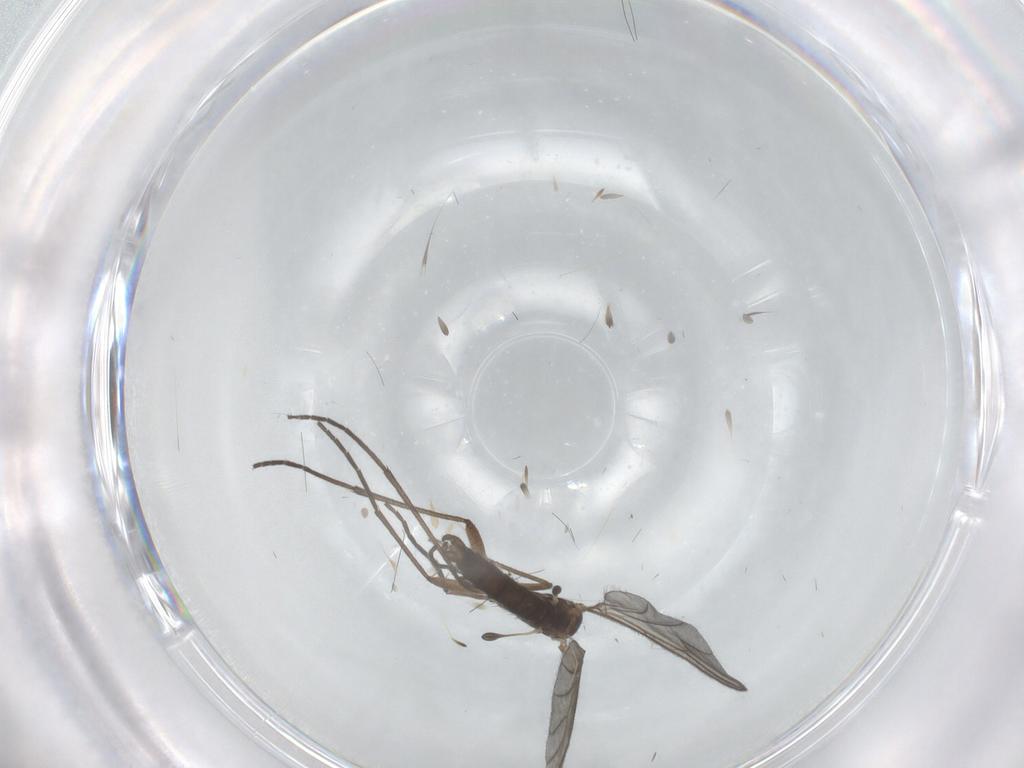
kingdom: Animalia
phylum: Arthropoda
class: Insecta
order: Diptera
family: Sciaridae
